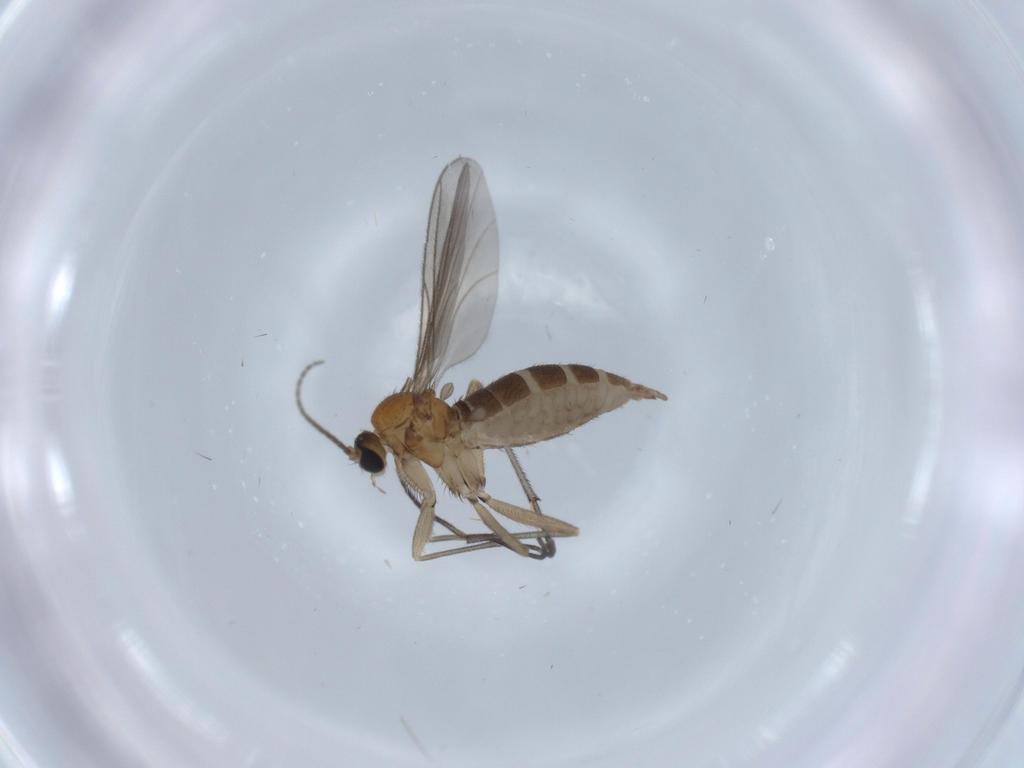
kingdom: Animalia
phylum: Arthropoda
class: Insecta
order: Diptera
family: Sciaridae
